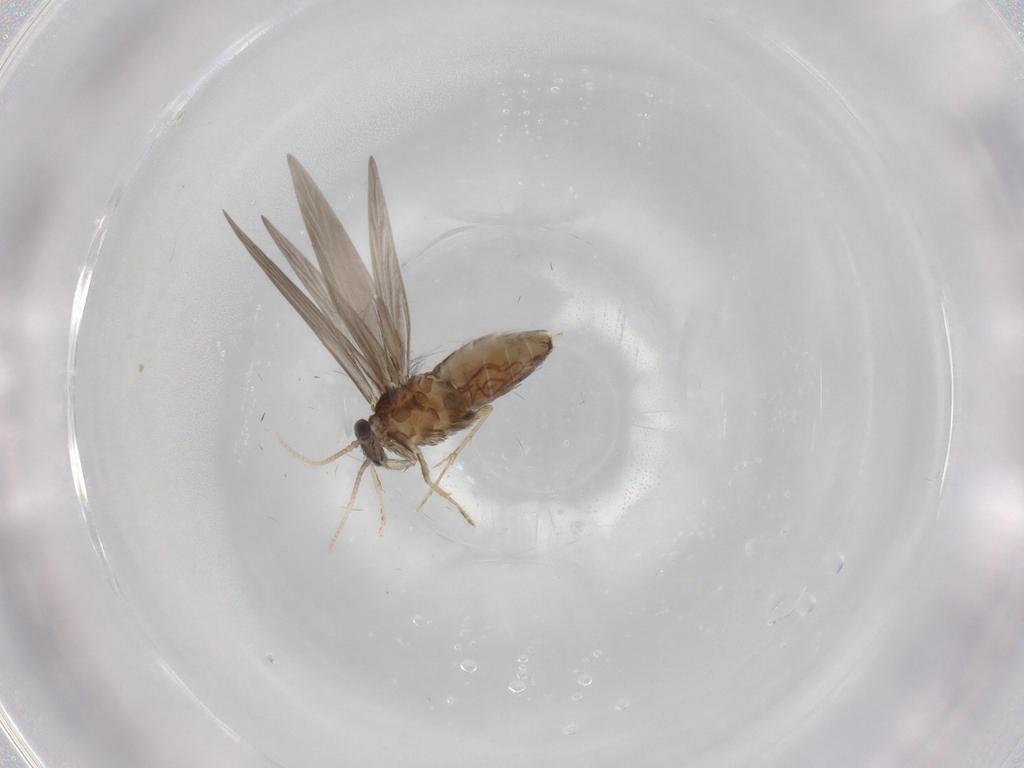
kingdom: Animalia
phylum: Arthropoda
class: Insecta
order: Trichoptera
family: Hydroptilidae
